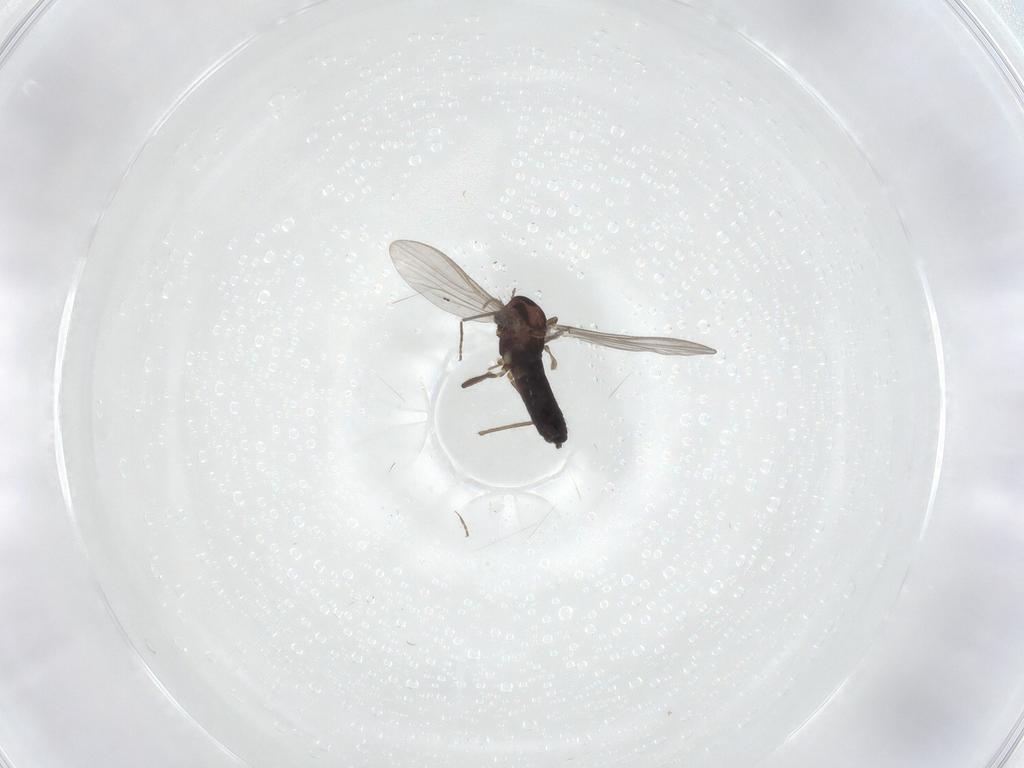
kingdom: Animalia
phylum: Arthropoda
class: Insecta
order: Diptera
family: Chironomidae
